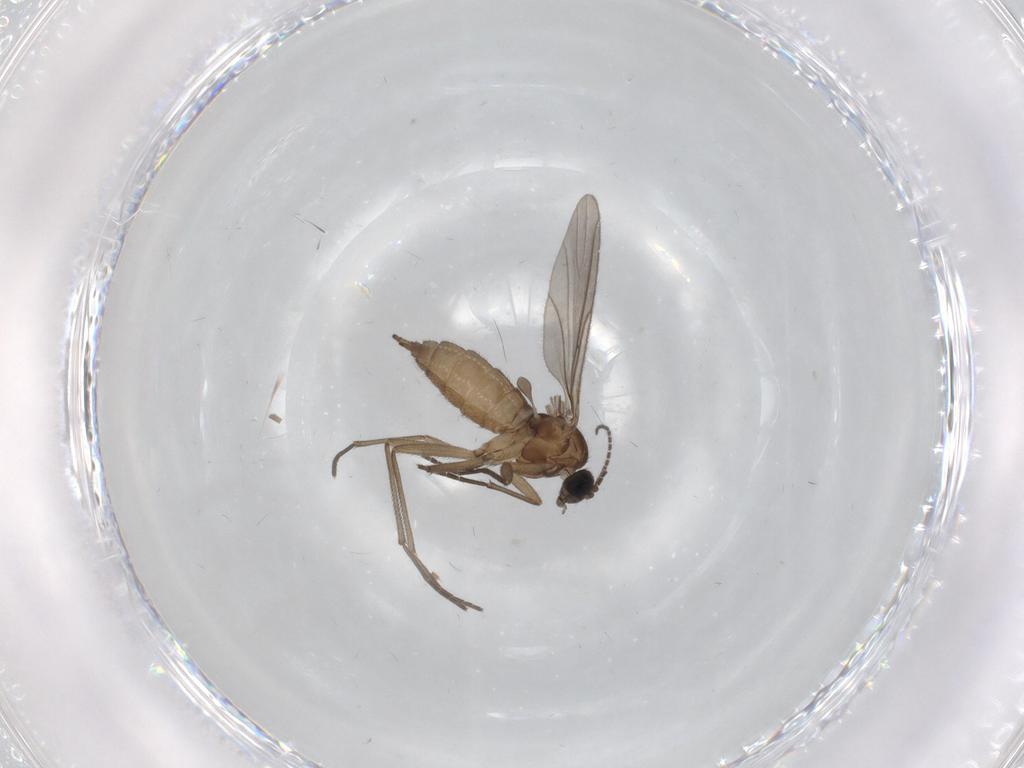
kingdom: Animalia
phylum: Arthropoda
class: Insecta
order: Diptera
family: Sciaridae
